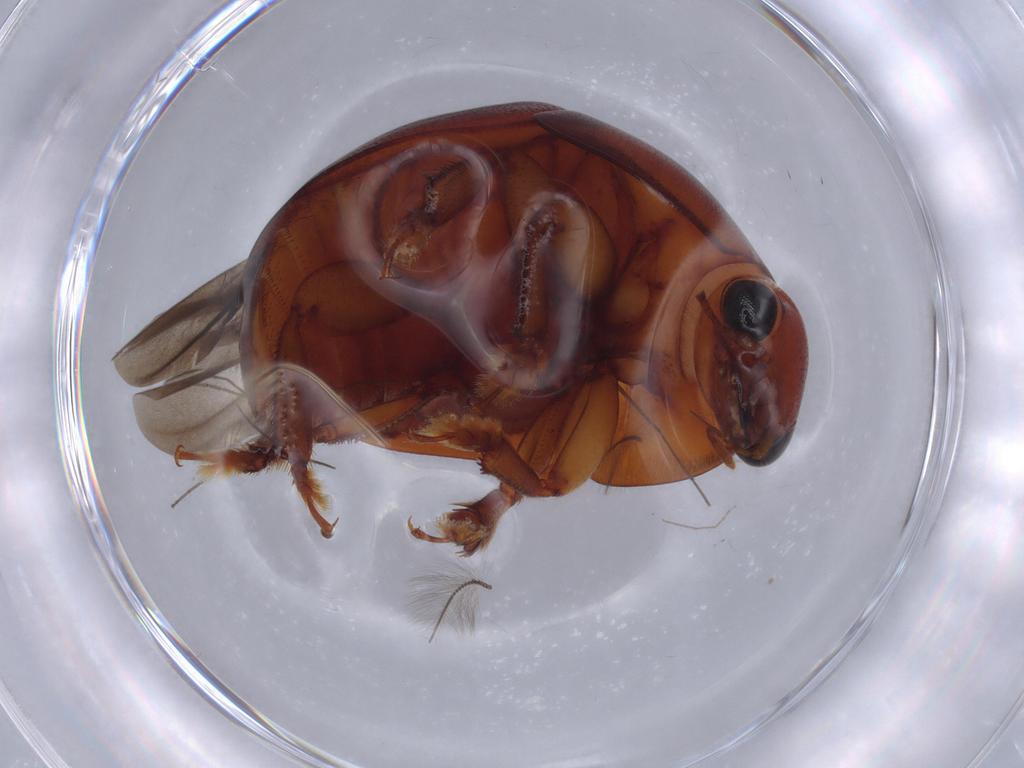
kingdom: Animalia
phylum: Arthropoda
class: Insecta
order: Coleoptera
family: Nitidulidae
